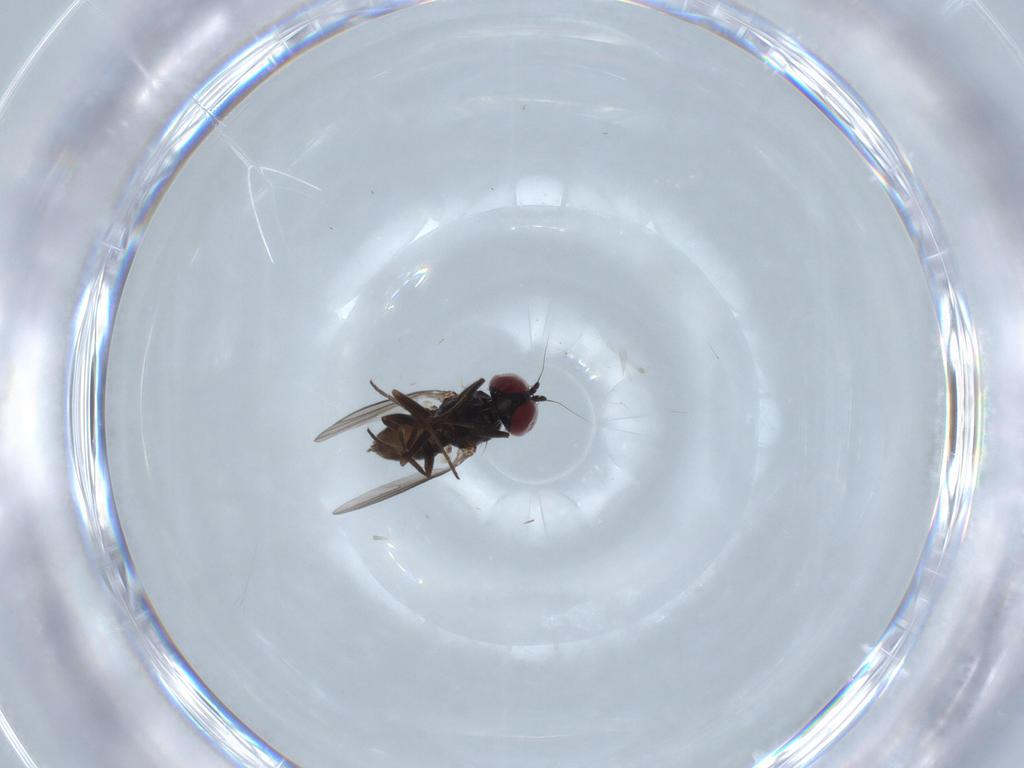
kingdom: Animalia
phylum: Arthropoda
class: Insecta
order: Diptera
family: Dolichopodidae
